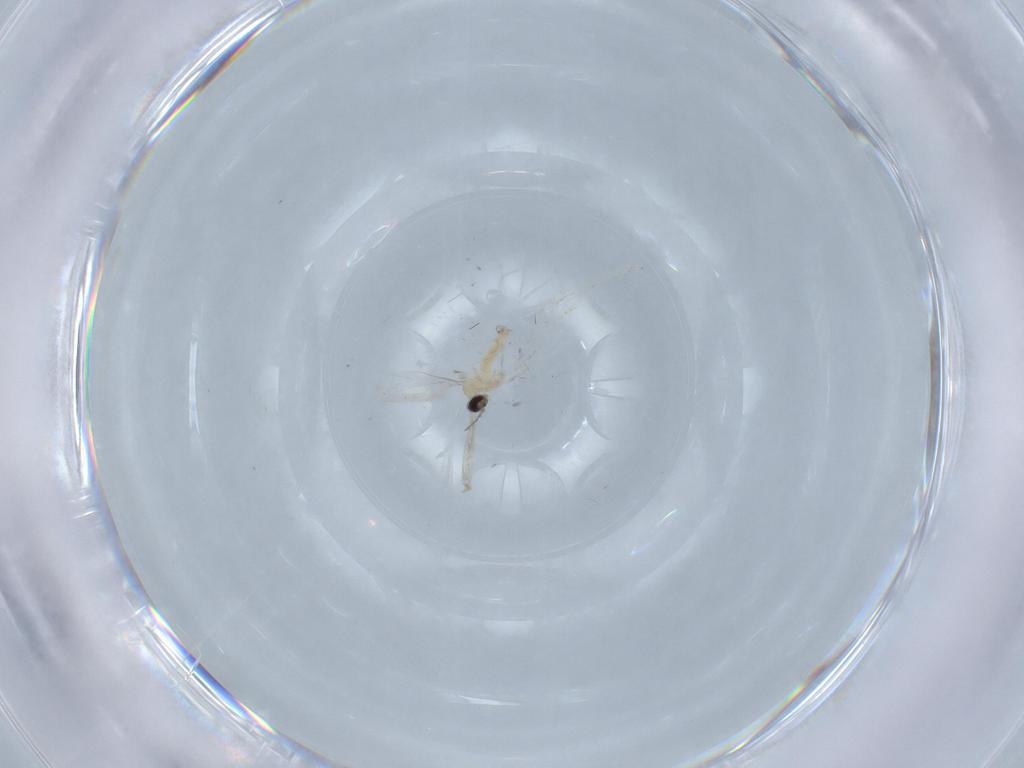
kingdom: Animalia
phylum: Arthropoda
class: Insecta
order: Diptera
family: Cecidomyiidae
